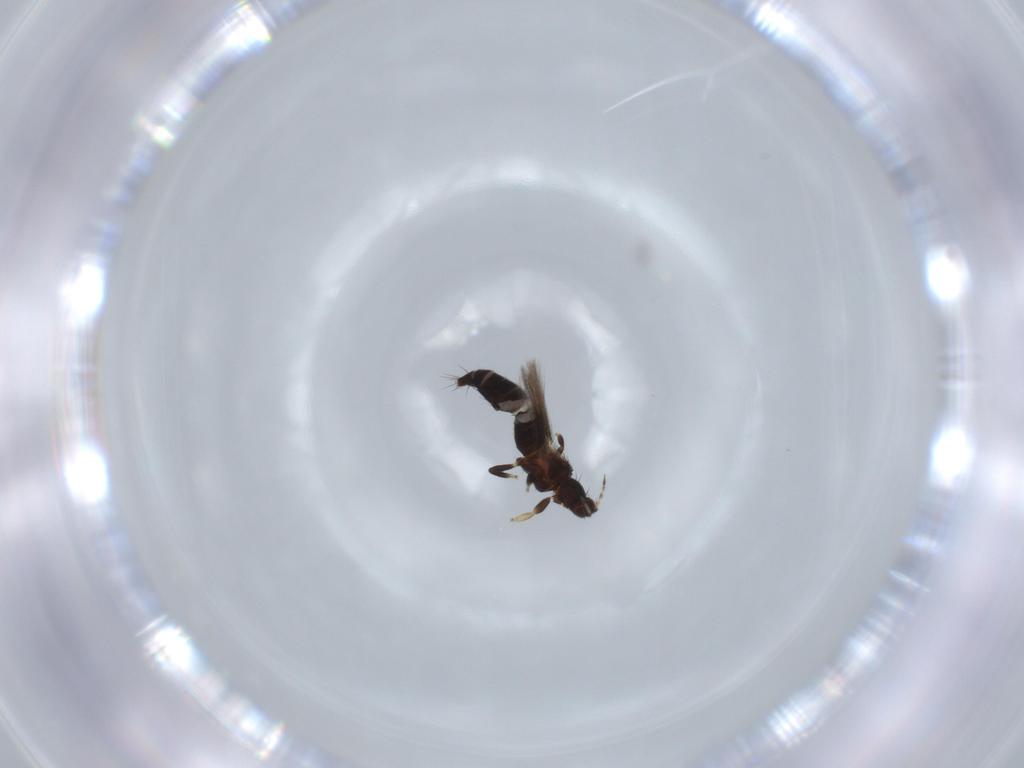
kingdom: Animalia
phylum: Arthropoda
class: Insecta
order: Thysanoptera
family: Thripidae
